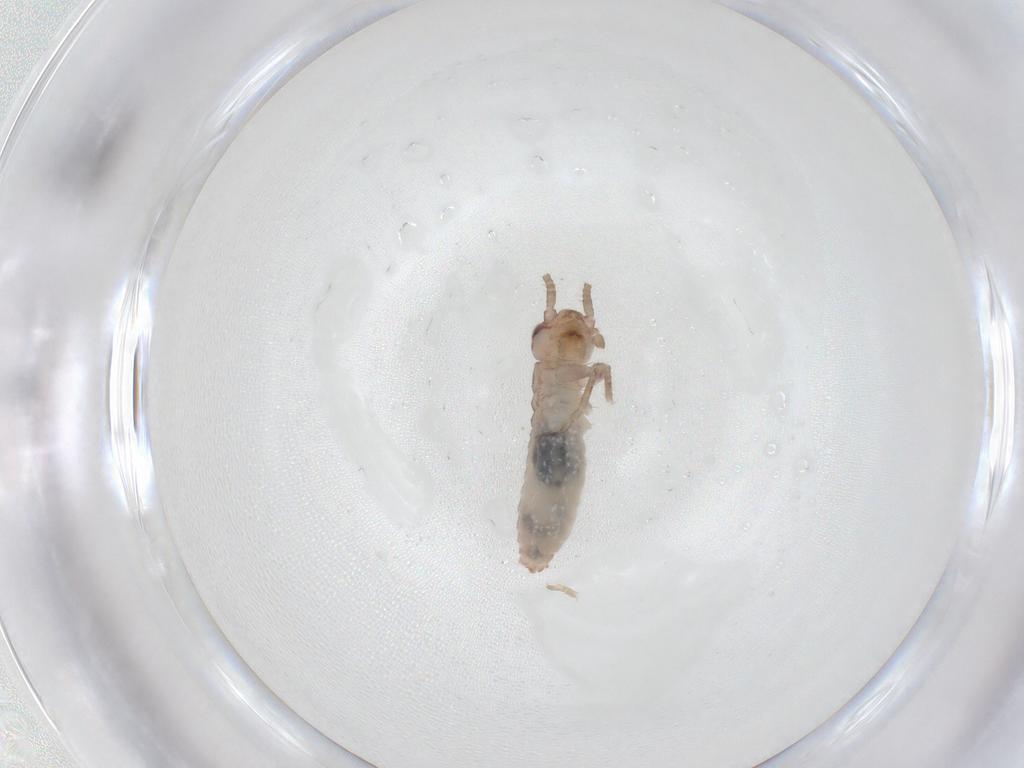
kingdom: Animalia
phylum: Arthropoda
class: Insecta
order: Orthoptera
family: Mogoplistidae
